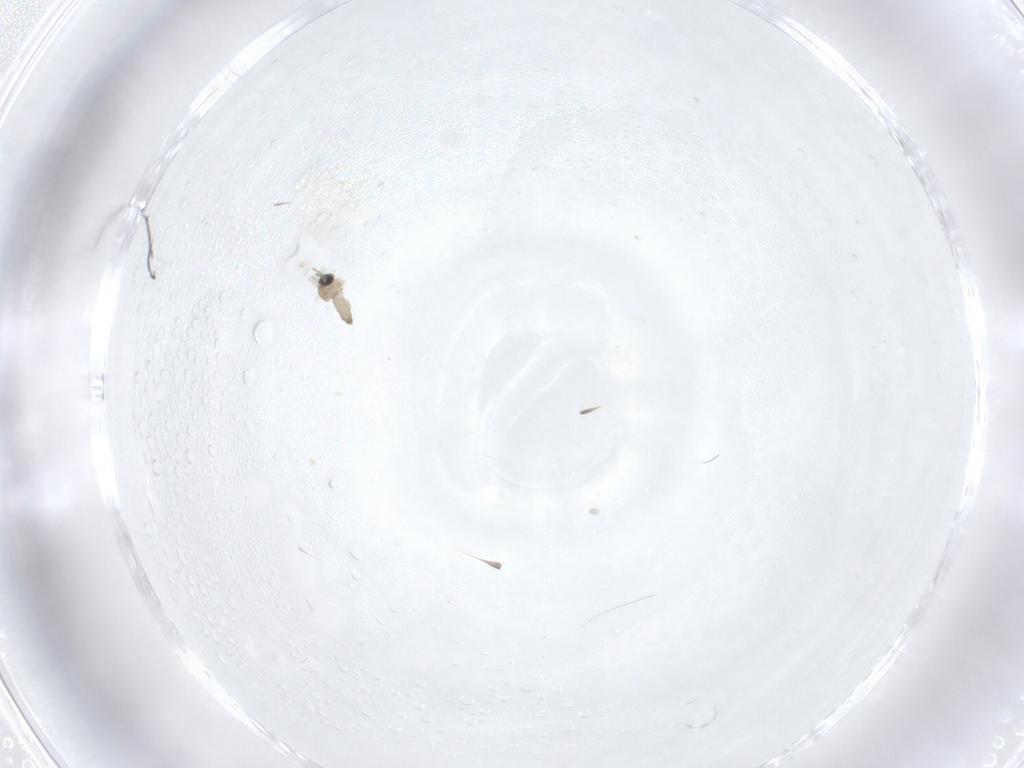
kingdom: Animalia
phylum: Arthropoda
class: Insecta
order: Diptera
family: Cecidomyiidae
